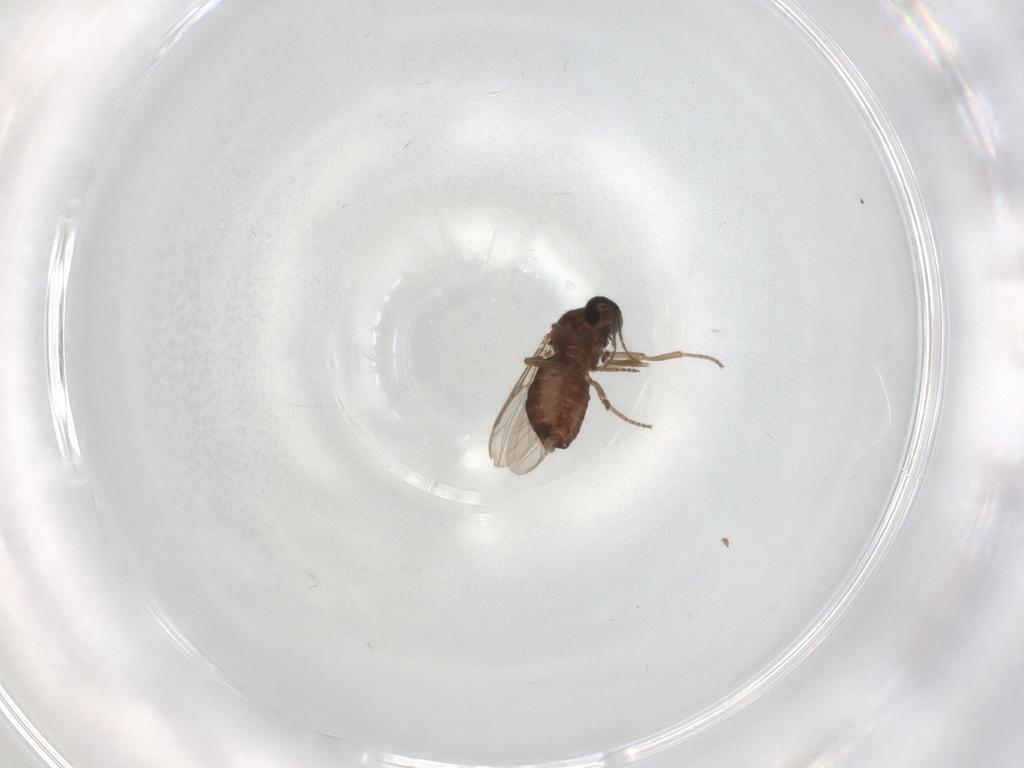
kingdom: Animalia
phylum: Arthropoda
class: Insecta
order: Diptera
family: Ceratopogonidae
